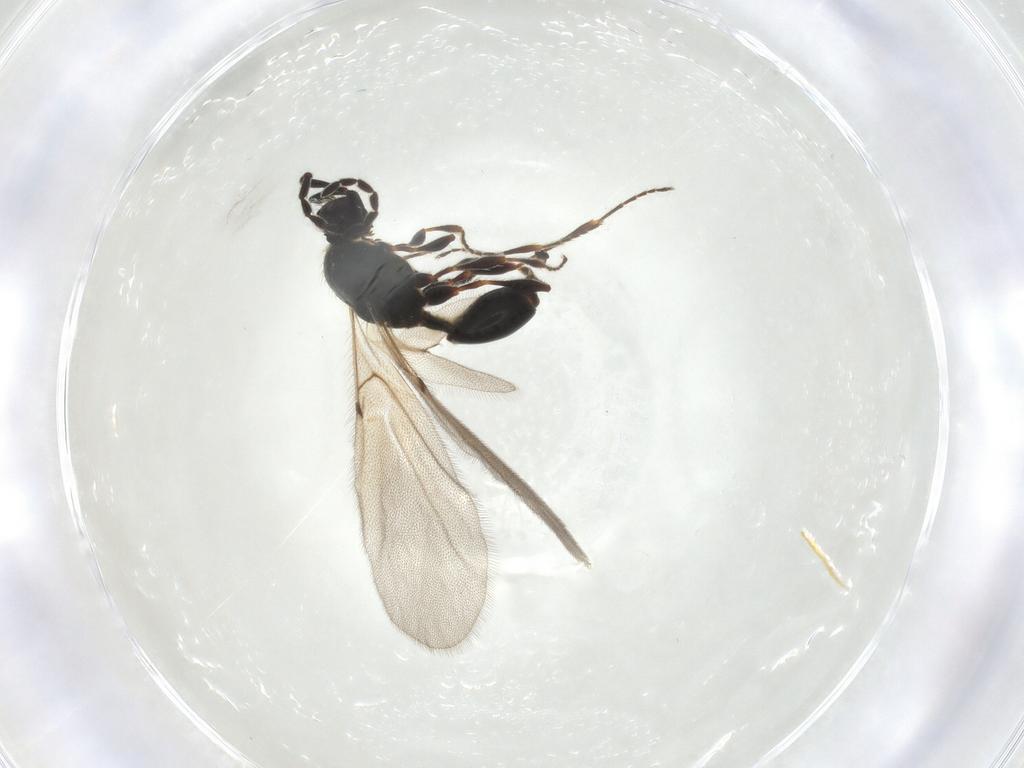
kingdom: Animalia
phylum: Arthropoda
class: Insecta
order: Hymenoptera
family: Diapriidae
